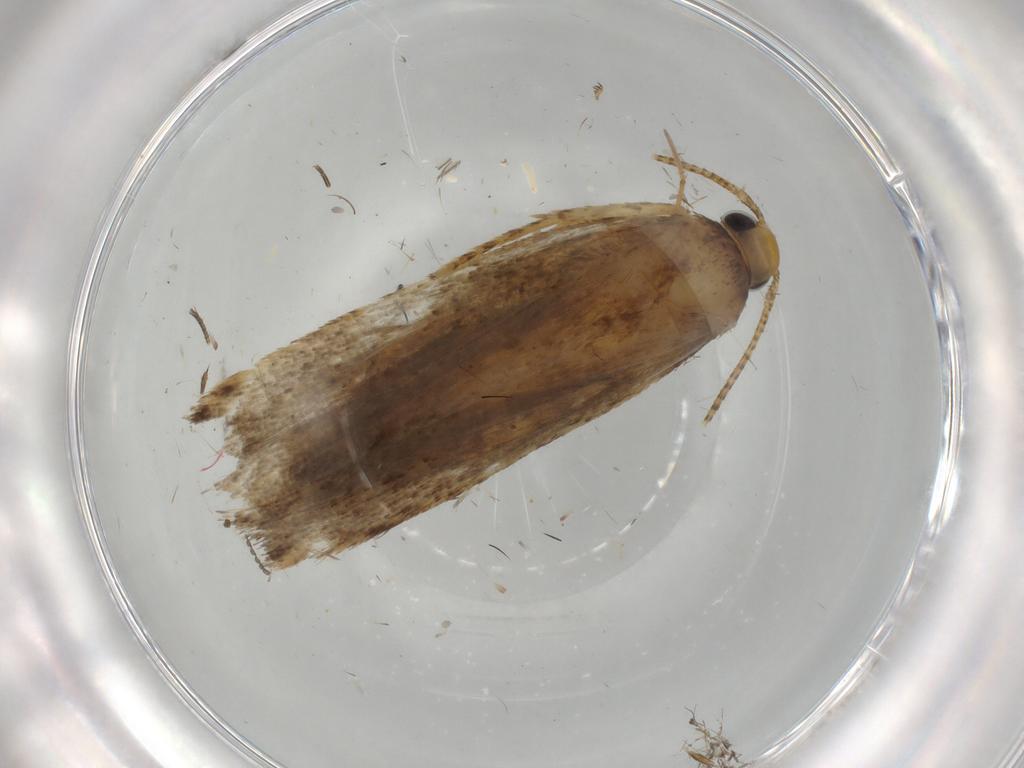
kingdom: Animalia
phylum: Arthropoda
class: Insecta
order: Lepidoptera
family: Autostichidae
